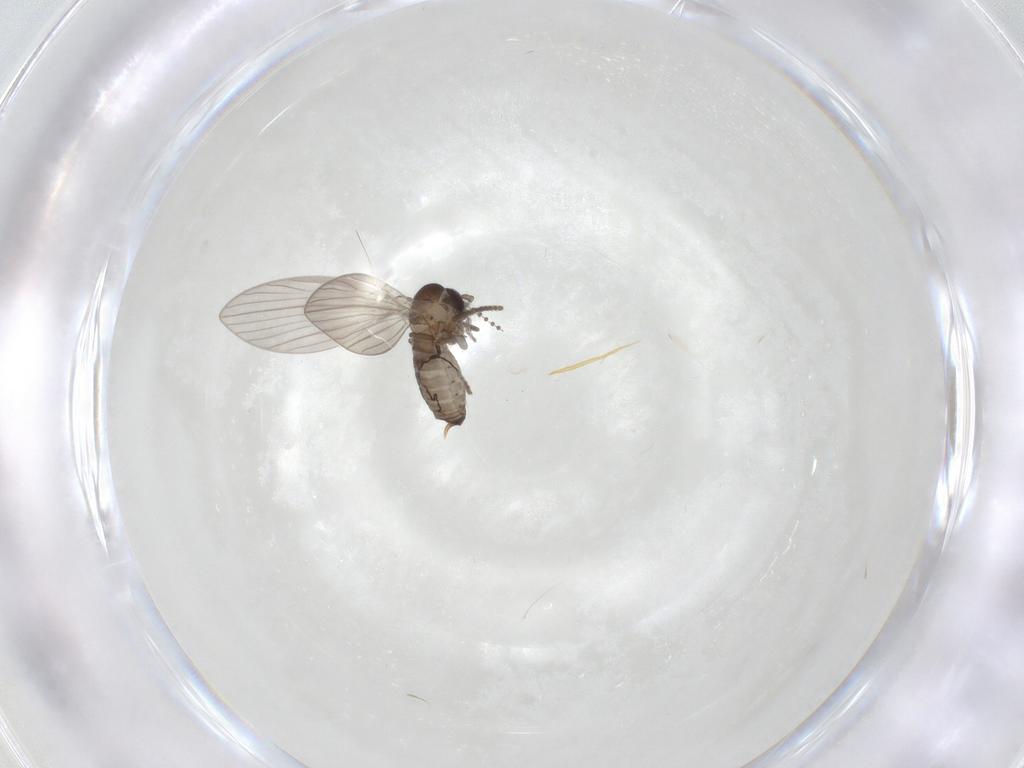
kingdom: Animalia
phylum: Arthropoda
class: Insecta
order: Diptera
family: Psychodidae
